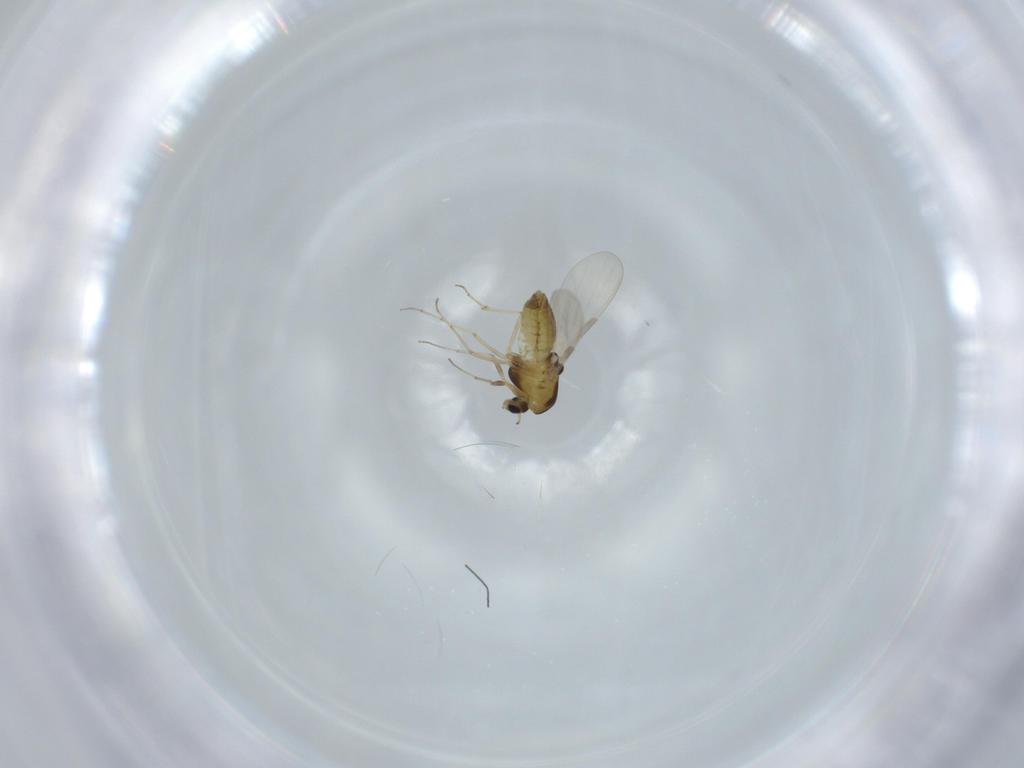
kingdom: Animalia
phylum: Arthropoda
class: Insecta
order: Diptera
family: Chironomidae
